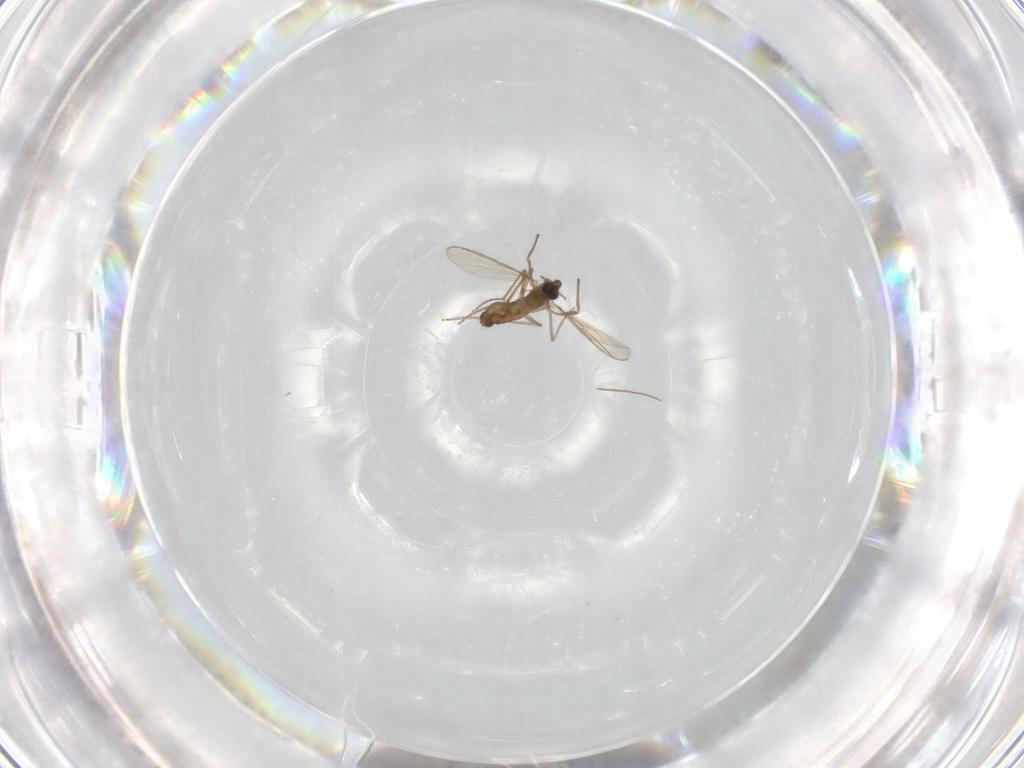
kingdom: Animalia
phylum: Arthropoda
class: Insecta
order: Diptera
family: Chironomidae
